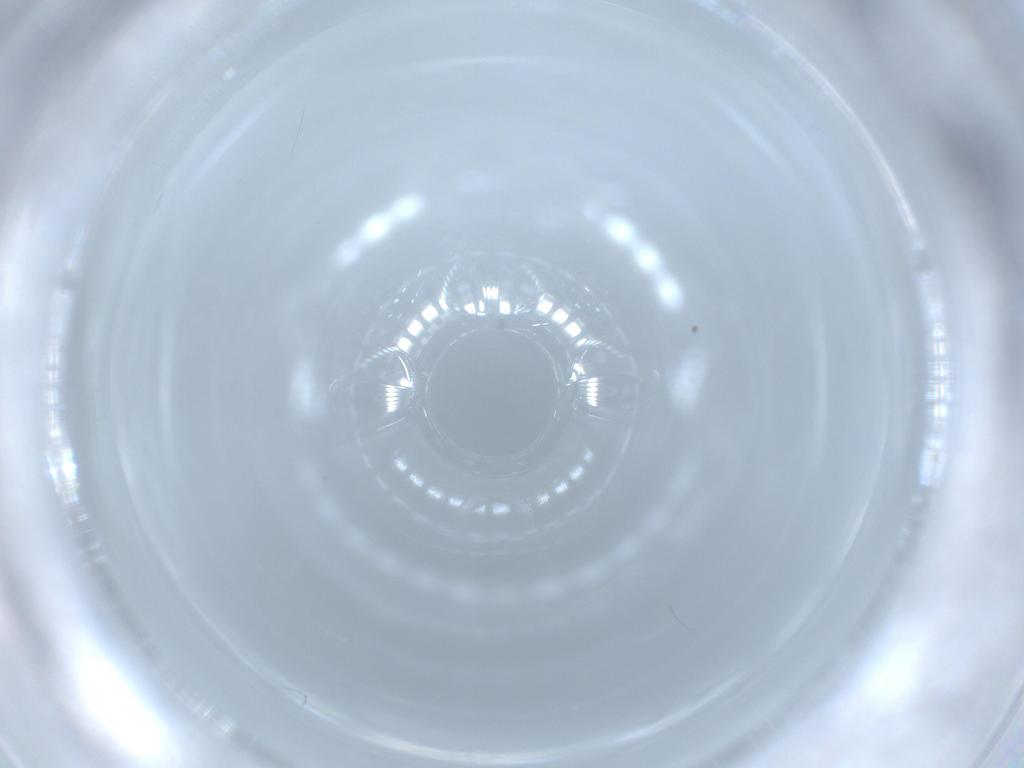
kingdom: Animalia
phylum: Arthropoda
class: Insecta
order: Diptera
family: Sciaridae
